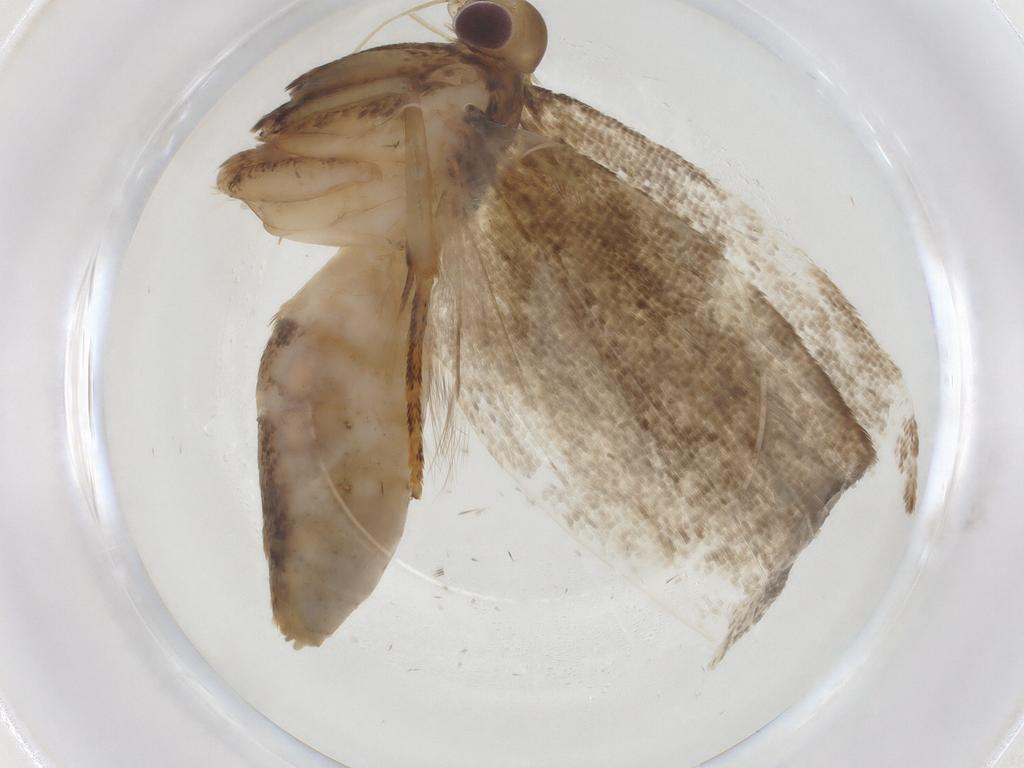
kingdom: Animalia
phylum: Arthropoda
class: Insecta
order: Lepidoptera
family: Depressariidae
